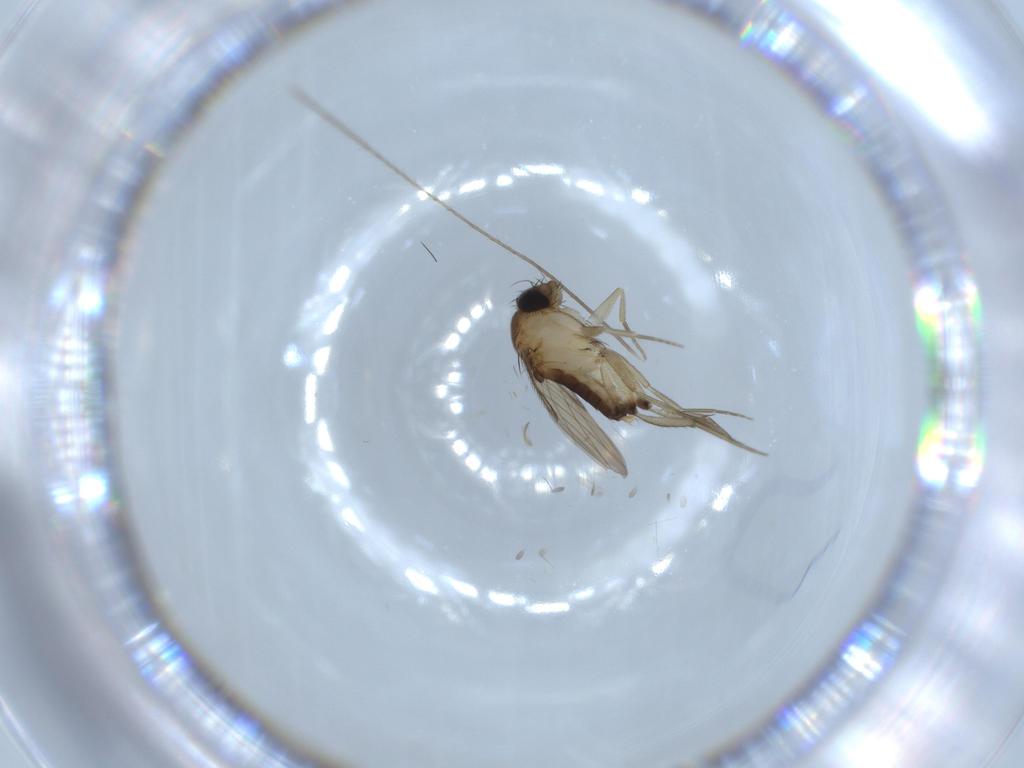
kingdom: Animalia
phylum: Arthropoda
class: Insecta
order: Diptera
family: Phoridae
